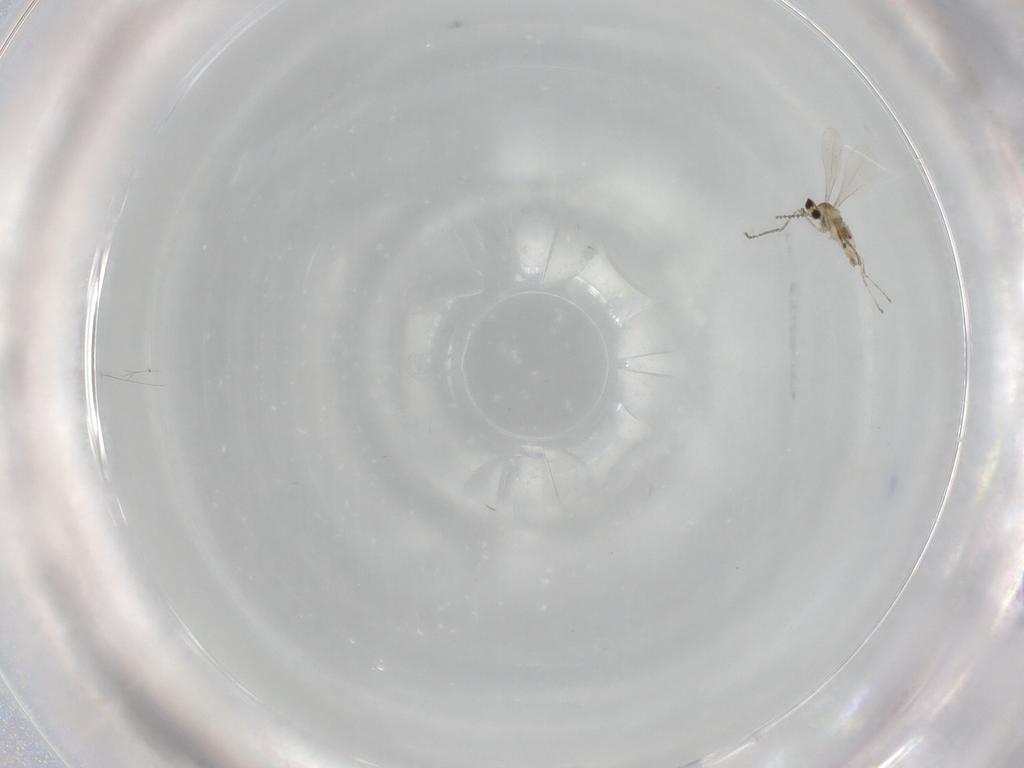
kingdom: Animalia
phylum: Arthropoda
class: Insecta
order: Diptera
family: Cecidomyiidae
